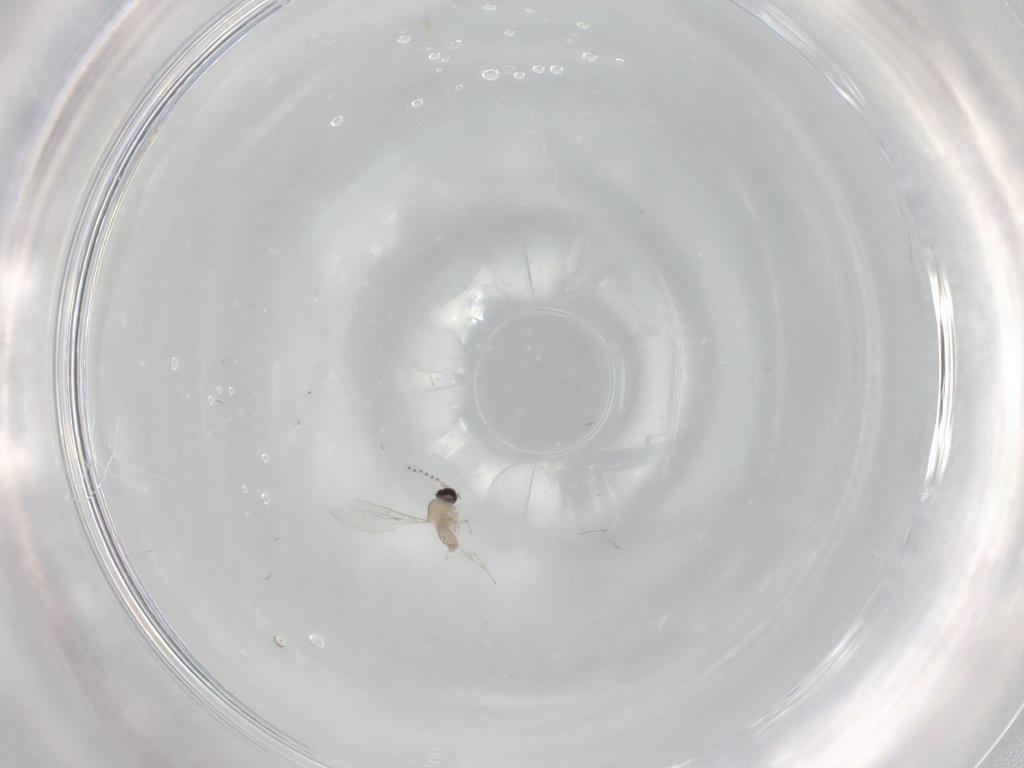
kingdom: Animalia
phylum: Arthropoda
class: Insecta
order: Diptera
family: Cecidomyiidae
